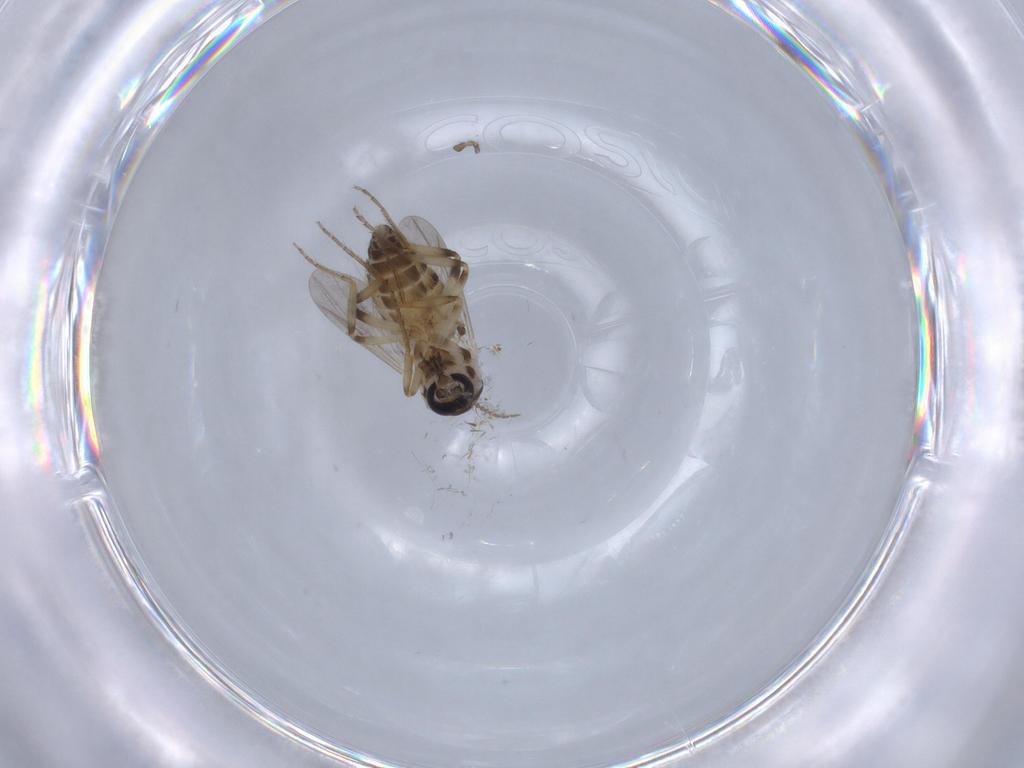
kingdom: Animalia
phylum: Arthropoda
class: Insecta
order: Diptera
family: Ceratopogonidae
